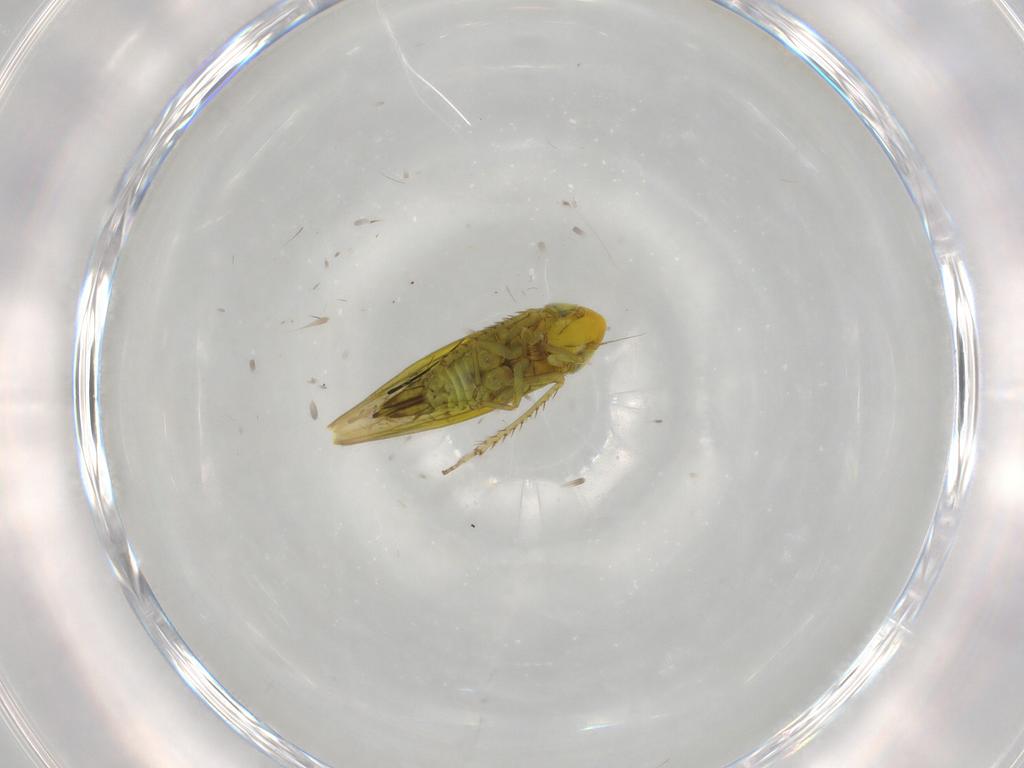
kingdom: Animalia
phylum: Arthropoda
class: Insecta
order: Hemiptera
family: Cicadellidae
